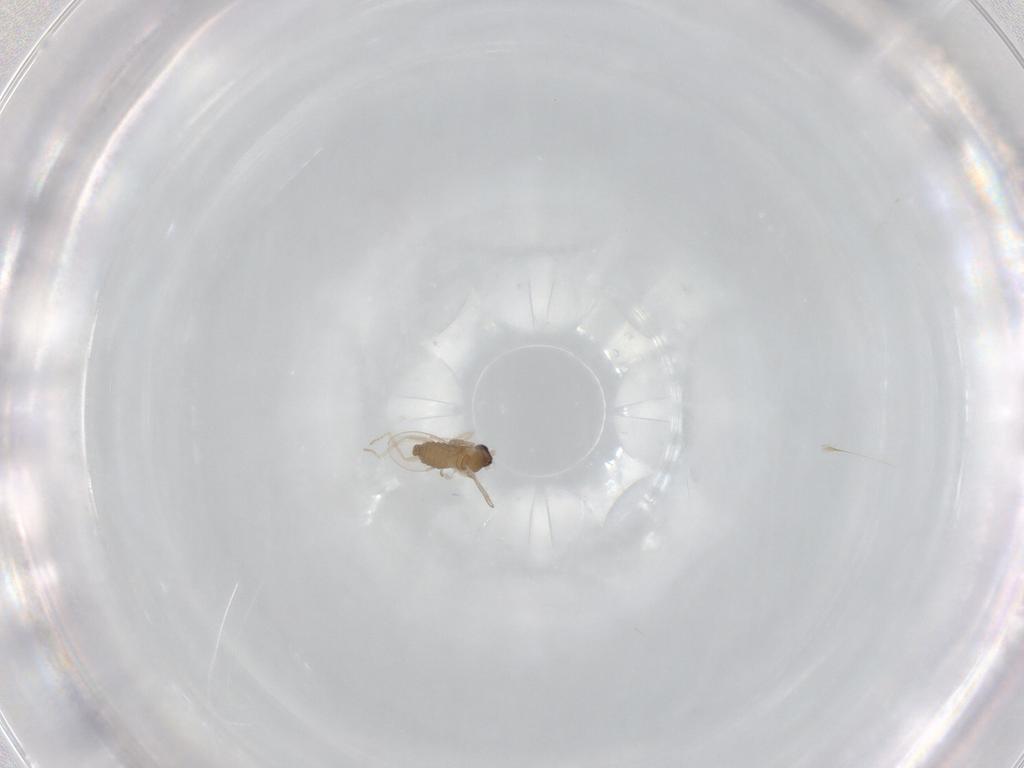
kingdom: Animalia
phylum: Arthropoda
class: Insecta
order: Diptera
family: Cecidomyiidae
